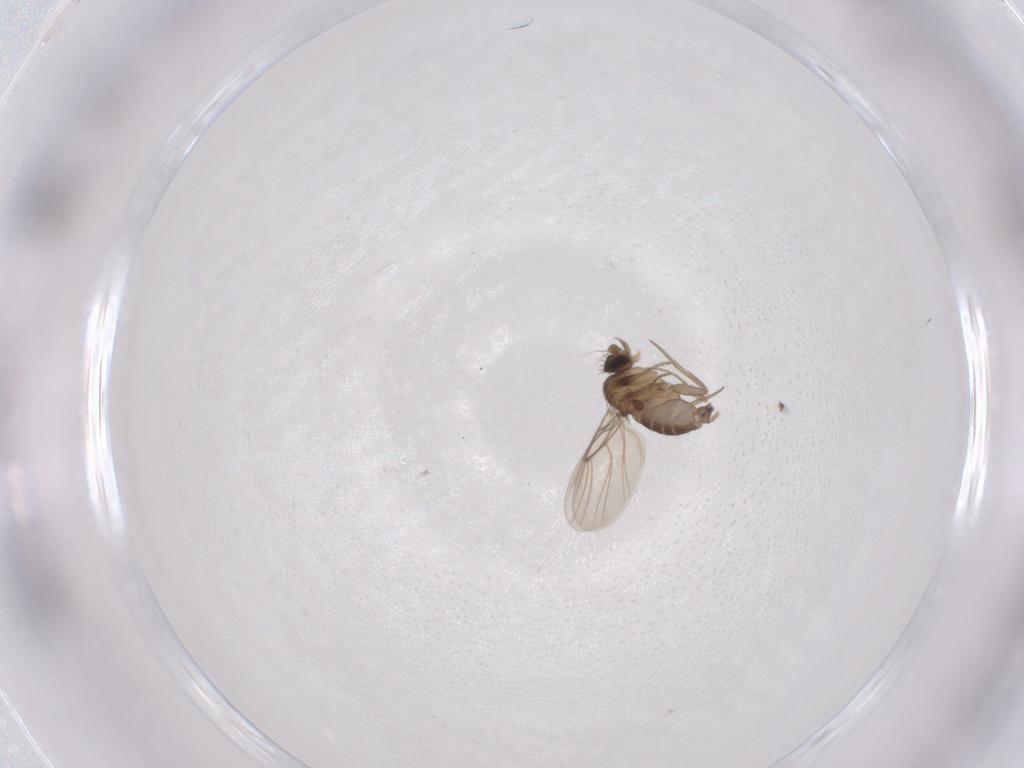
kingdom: Animalia
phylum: Arthropoda
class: Insecta
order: Diptera
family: Phoridae
